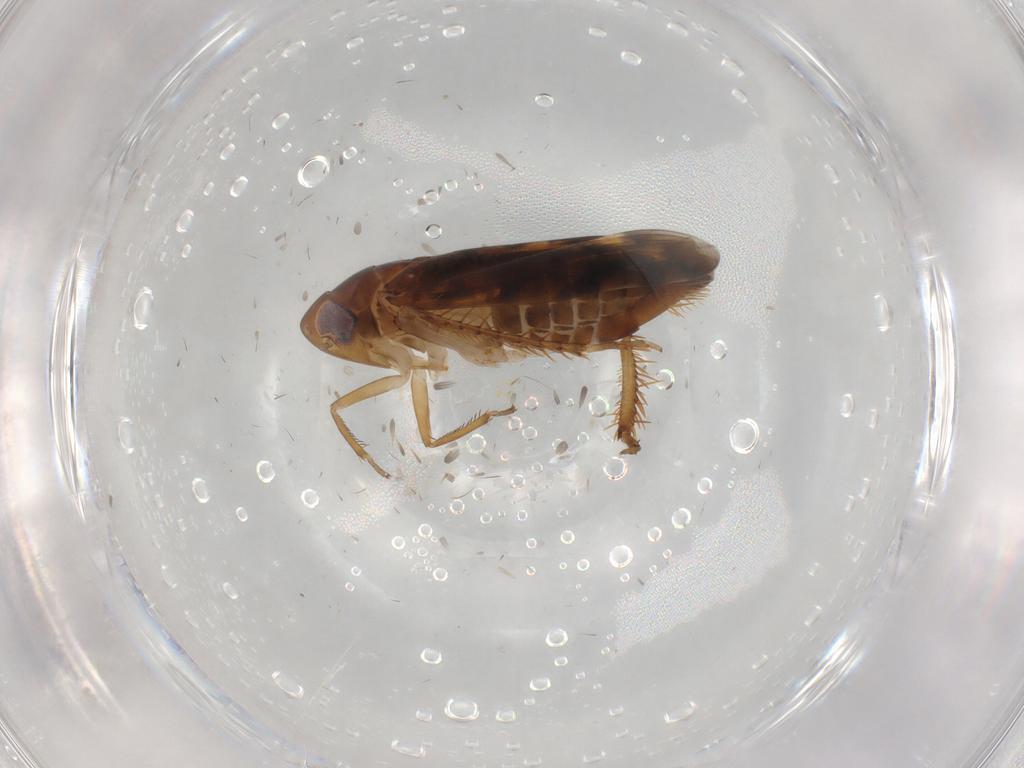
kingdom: Animalia
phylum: Arthropoda
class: Insecta
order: Hemiptera
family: Cicadellidae
